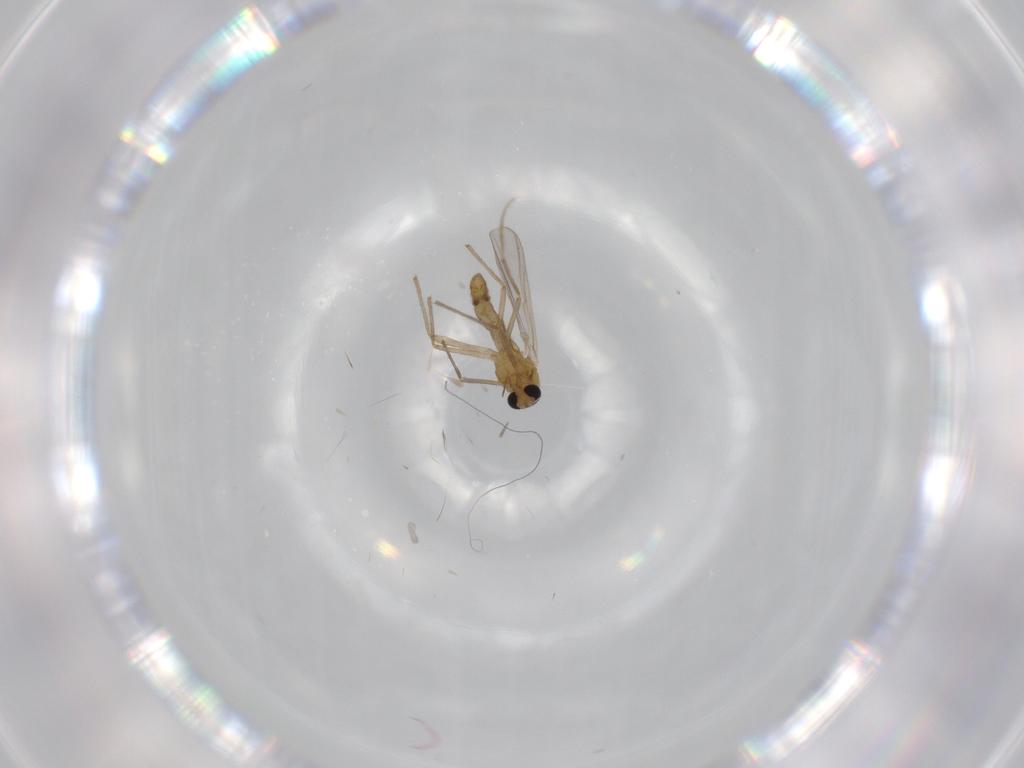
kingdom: Animalia
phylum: Arthropoda
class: Insecta
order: Diptera
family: Chironomidae
